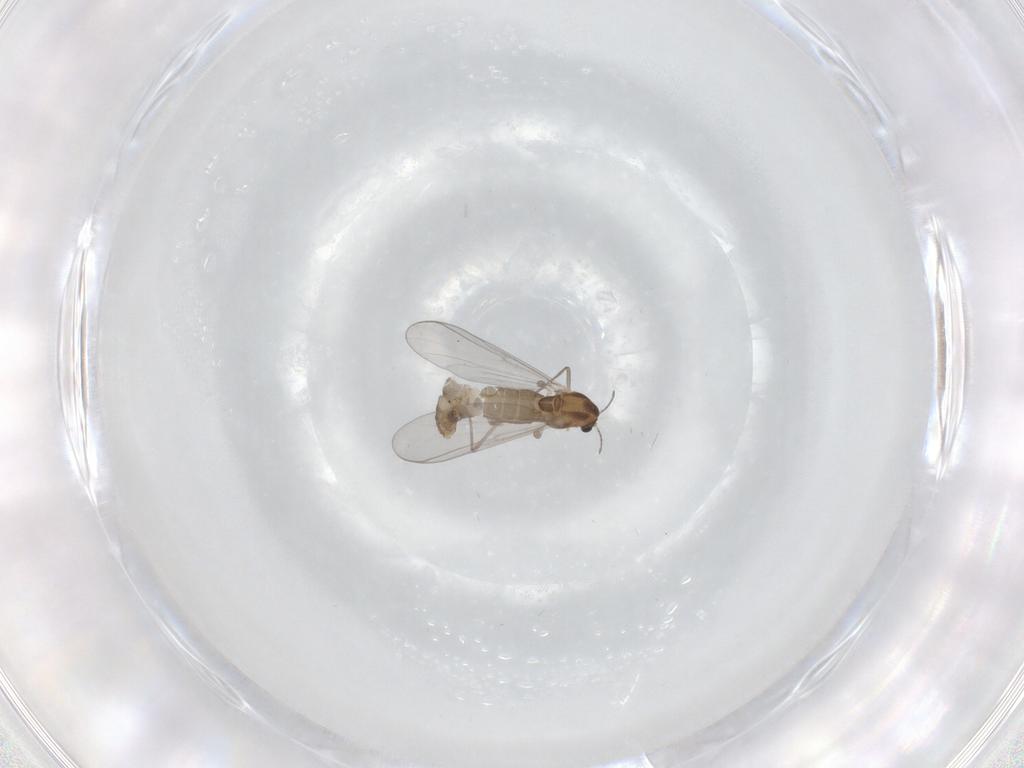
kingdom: Animalia
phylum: Arthropoda
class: Insecta
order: Diptera
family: Chironomidae
